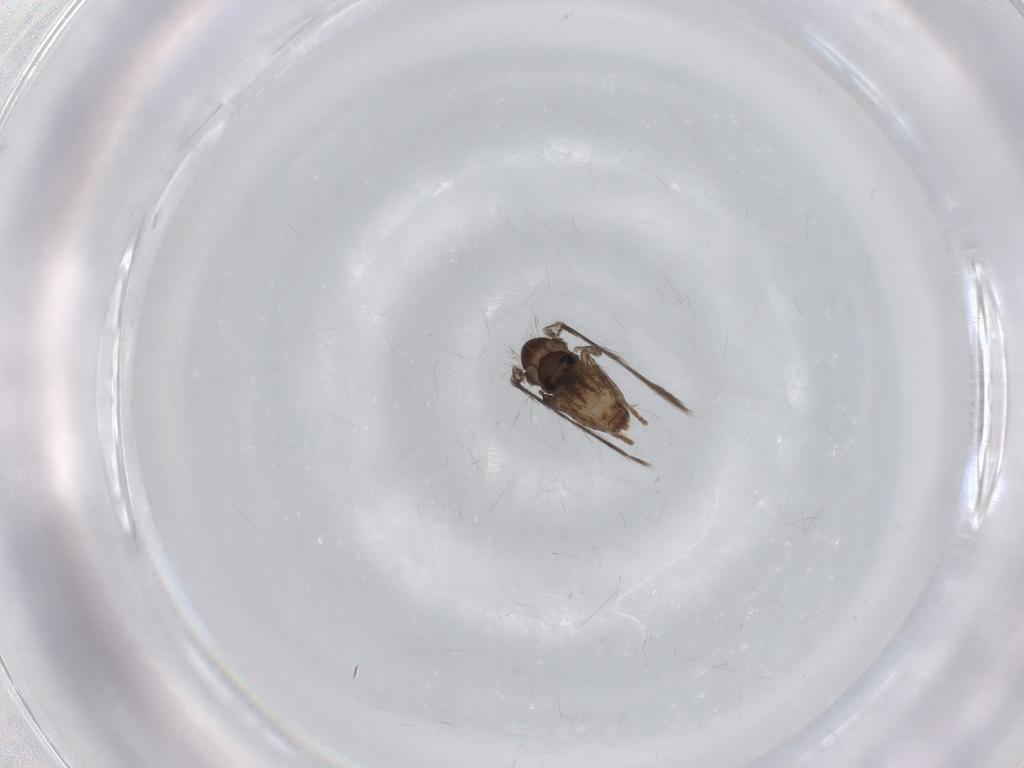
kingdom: Animalia
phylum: Arthropoda
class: Insecta
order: Diptera
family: Psychodidae
